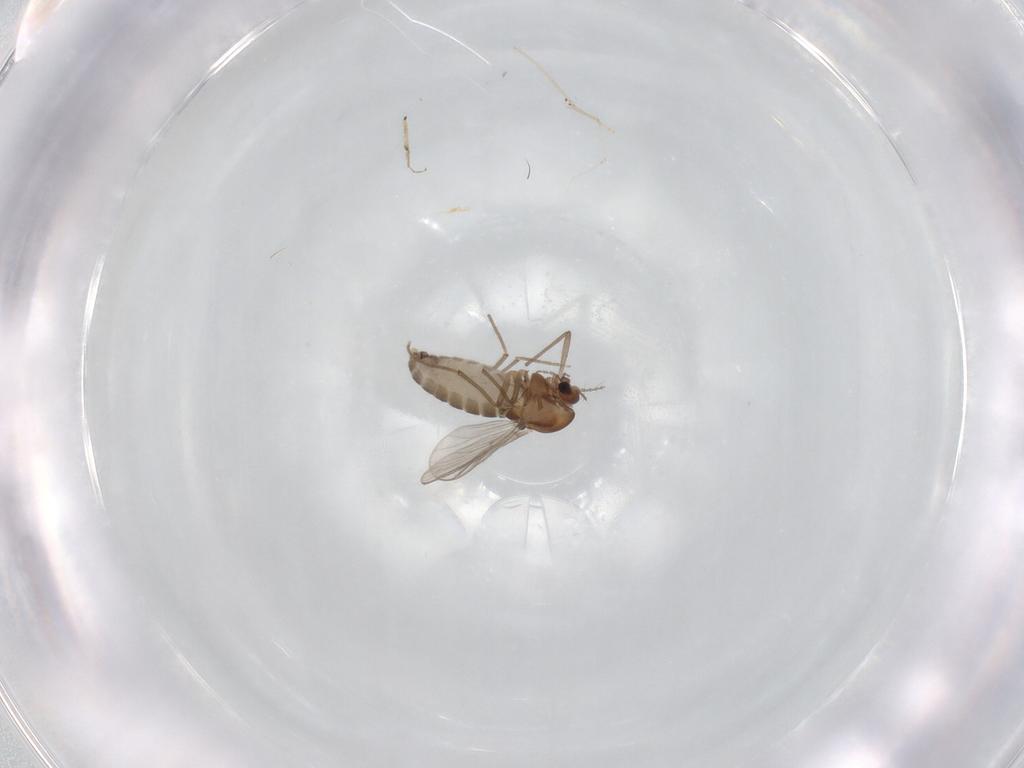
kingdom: Animalia
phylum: Arthropoda
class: Insecta
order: Diptera
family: Chironomidae
